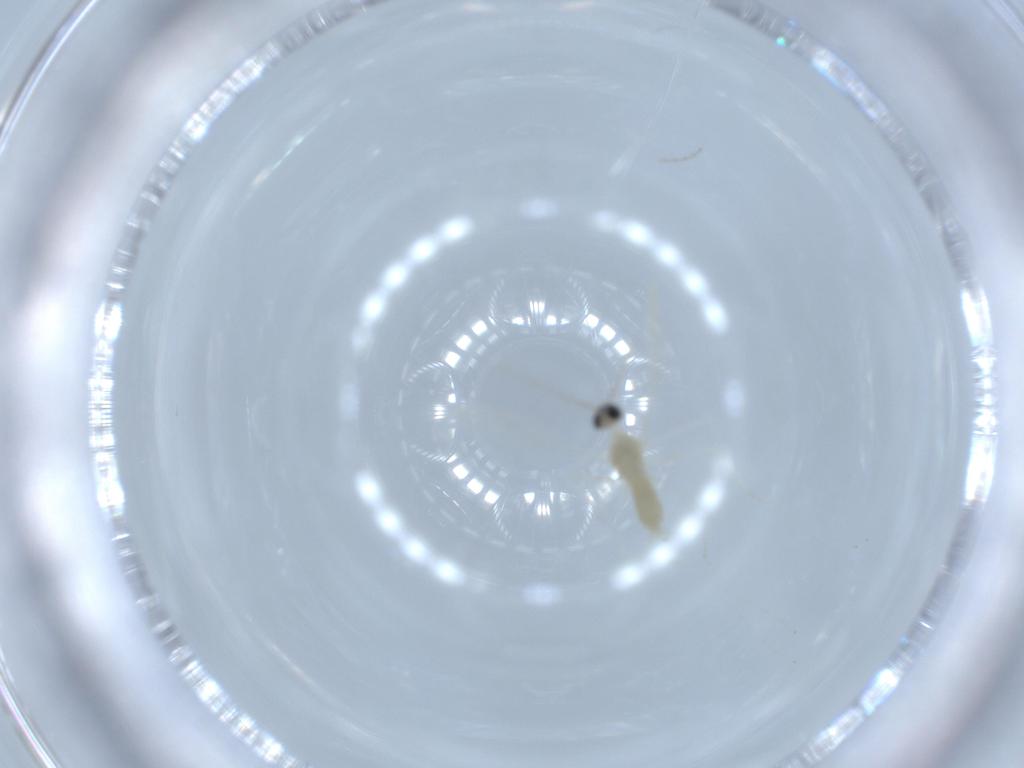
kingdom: Animalia
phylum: Arthropoda
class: Insecta
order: Diptera
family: Cecidomyiidae
